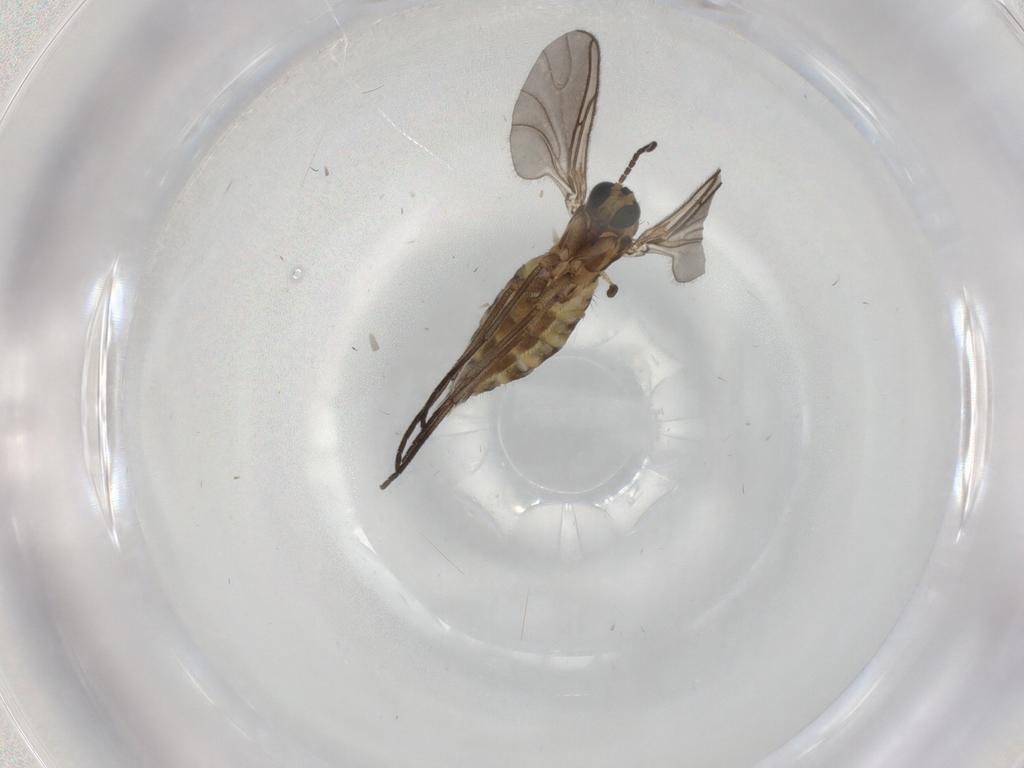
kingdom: Animalia
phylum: Arthropoda
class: Insecta
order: Diptera
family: Sciaridae
